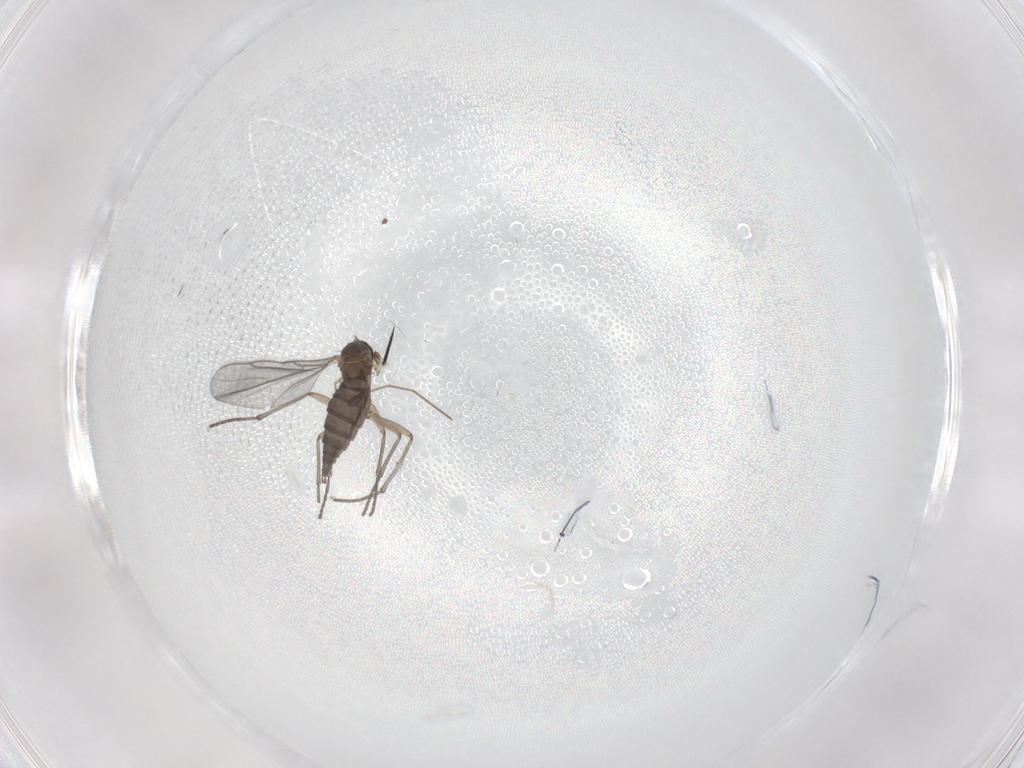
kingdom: Animalia
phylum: Arthropoda
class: Insecta
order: Diptera
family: Sciaridae
